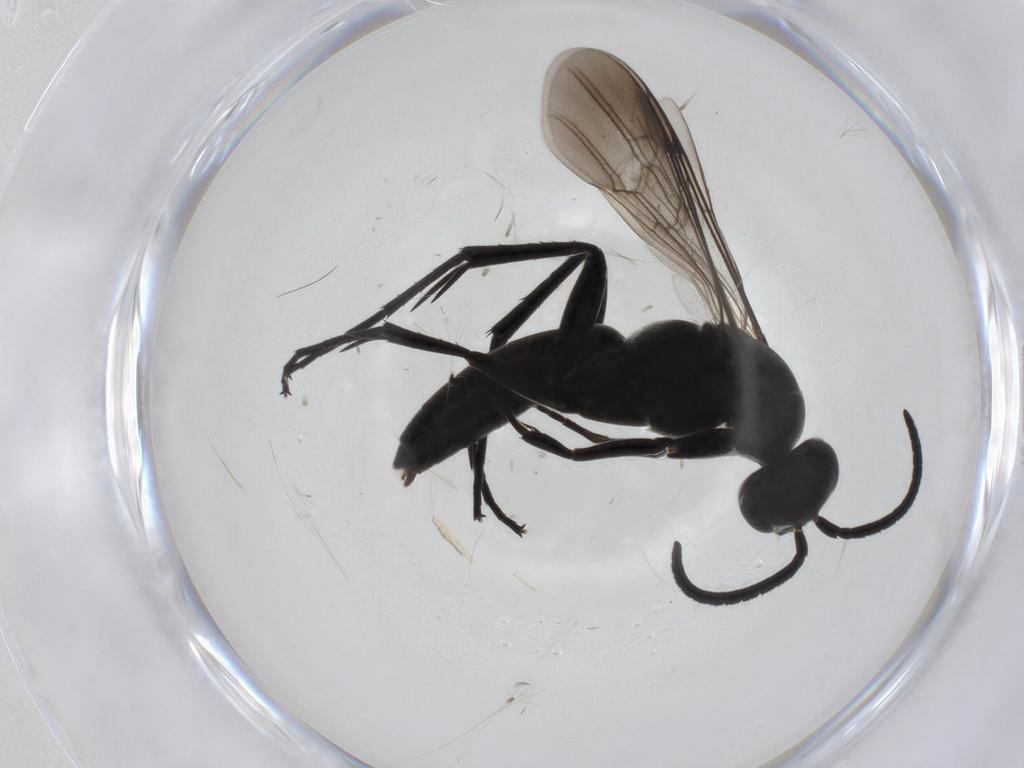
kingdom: Animalia
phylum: Arthropoda
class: Insecta
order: Hymenoptera
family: Pompilidae
